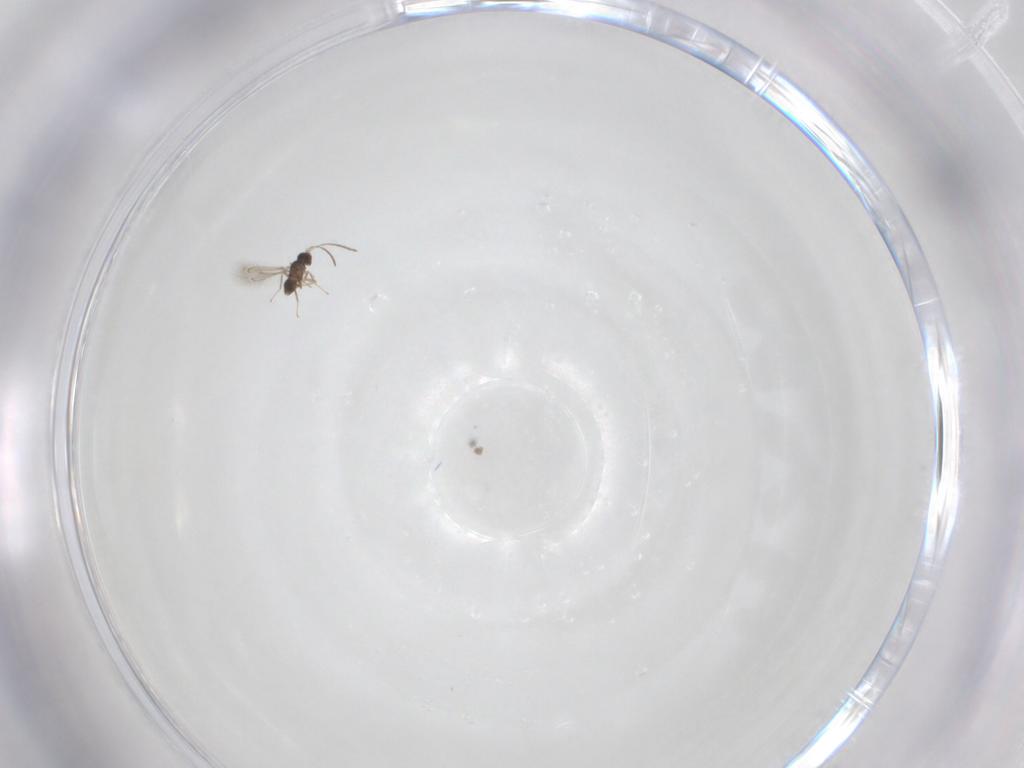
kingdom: Animalia
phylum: Arthropoda
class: Insecta
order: Hymenoptera
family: Mymaridae
